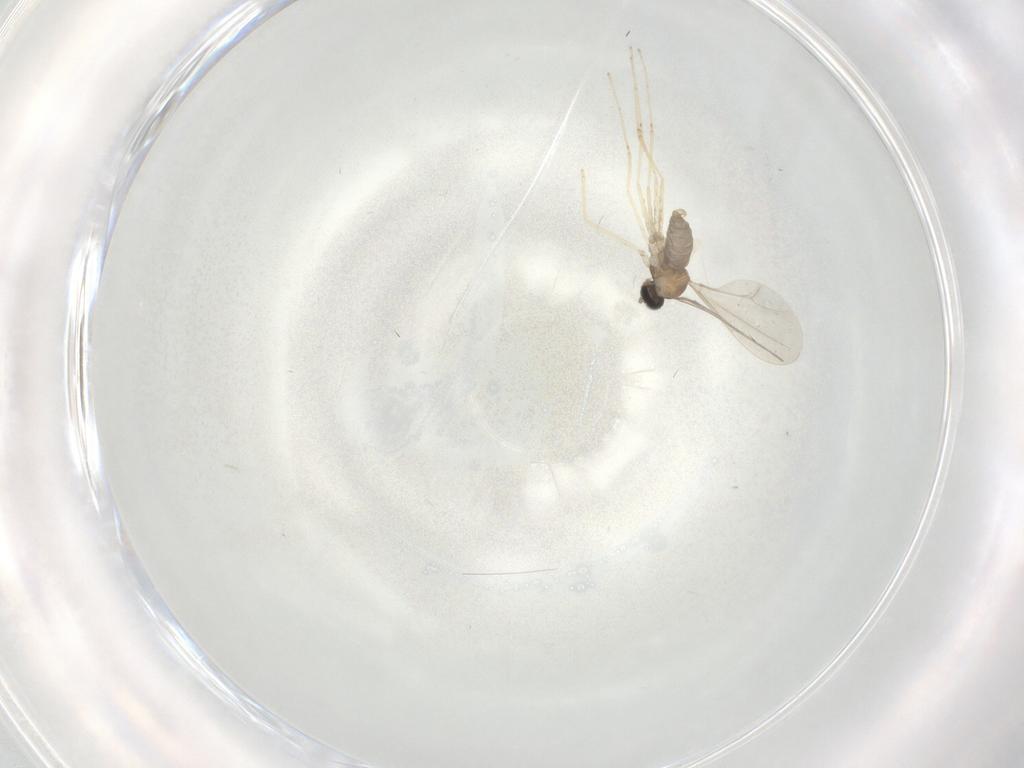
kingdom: Animalia
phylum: Arthropoda
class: Insecta
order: Diptera
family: Cecidomyiidae
